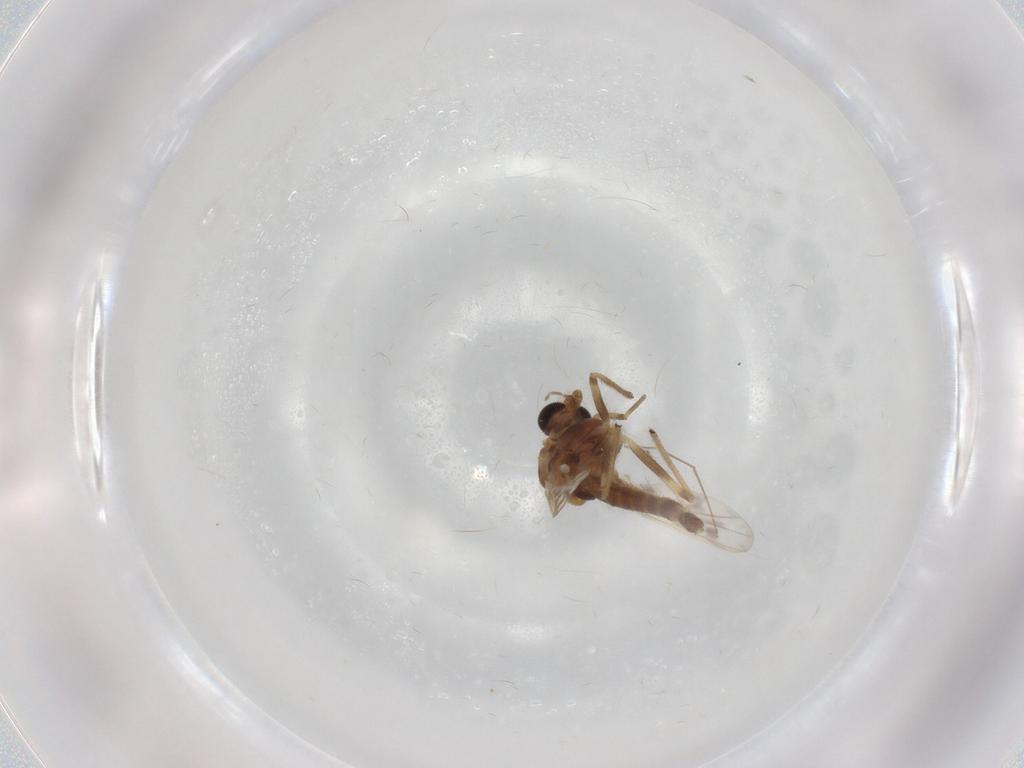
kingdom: Animalia
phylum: Arthropoda
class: Insecta
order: Diptera
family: Chironomidae
